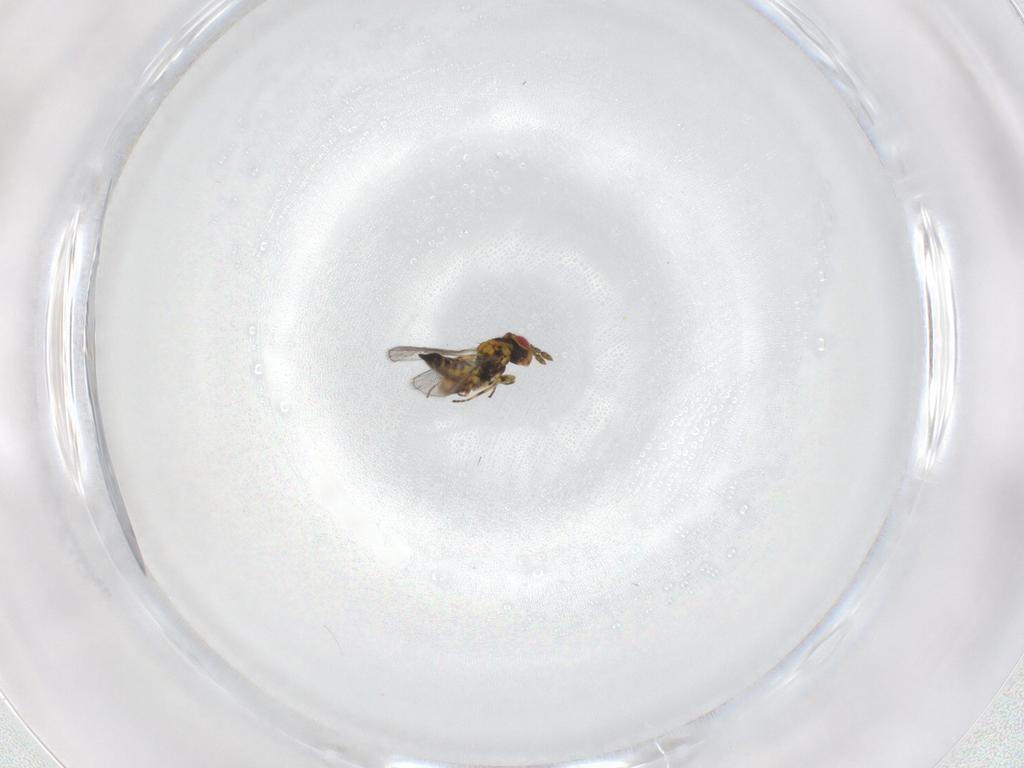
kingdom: Animalia
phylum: Arthropoda
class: Insecta
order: Hymenoptera
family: Eulophidae
